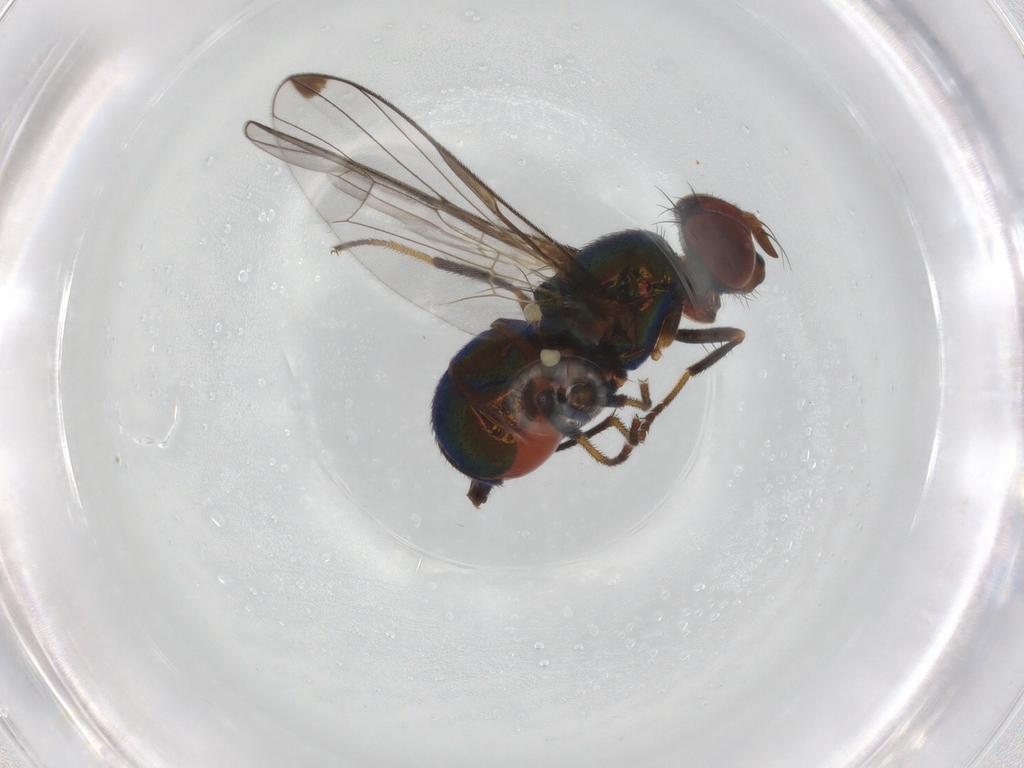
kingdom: Animalia
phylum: Arthropoda
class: Insecta
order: Diptera
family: Platystomatidae
